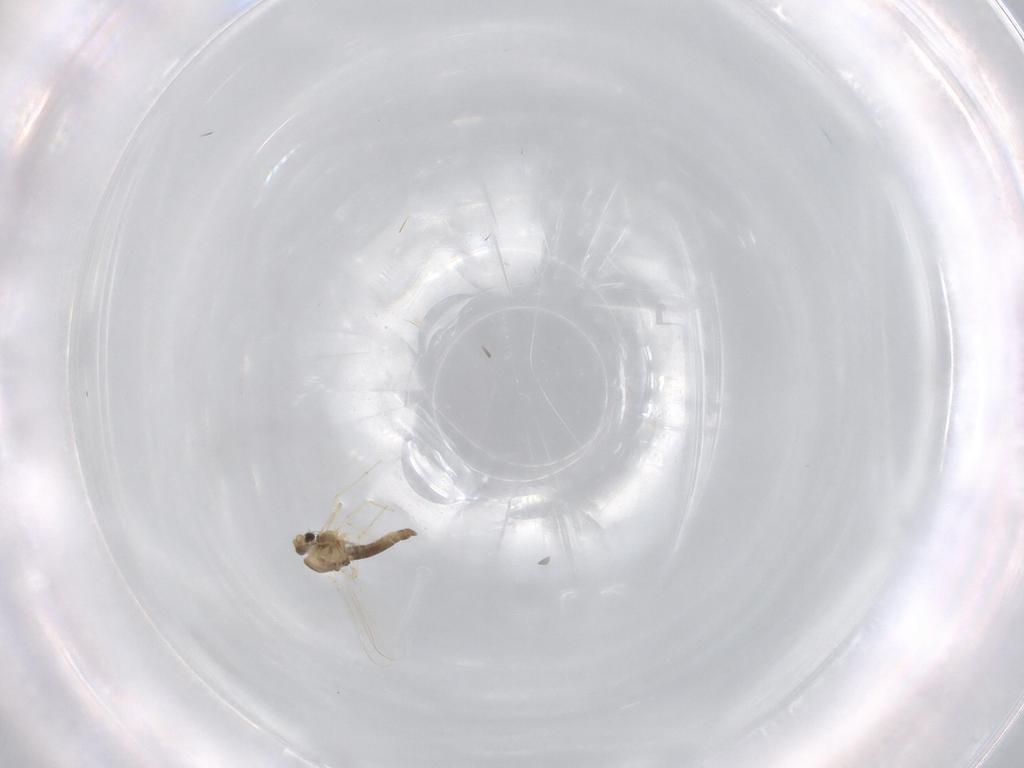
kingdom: Animalia
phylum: Arthropoda
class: Insecta
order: Diptera
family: Chironomidae
